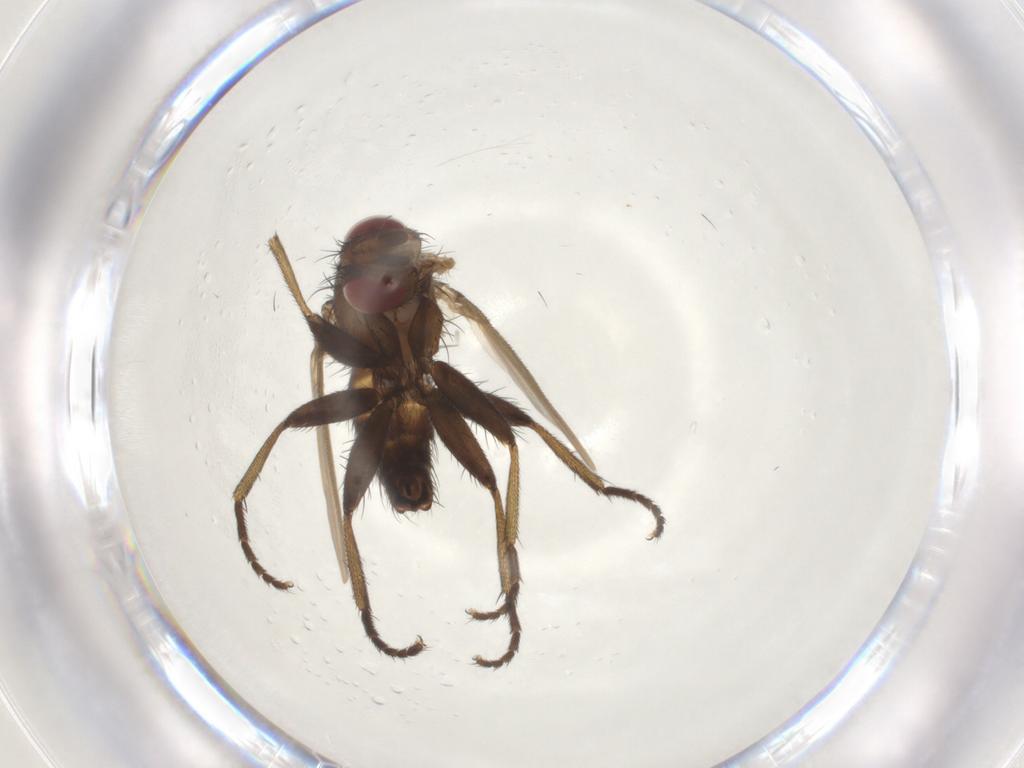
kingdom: Animalia
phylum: Arthropoda
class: Insecta
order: Diptera
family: Tachinidae
